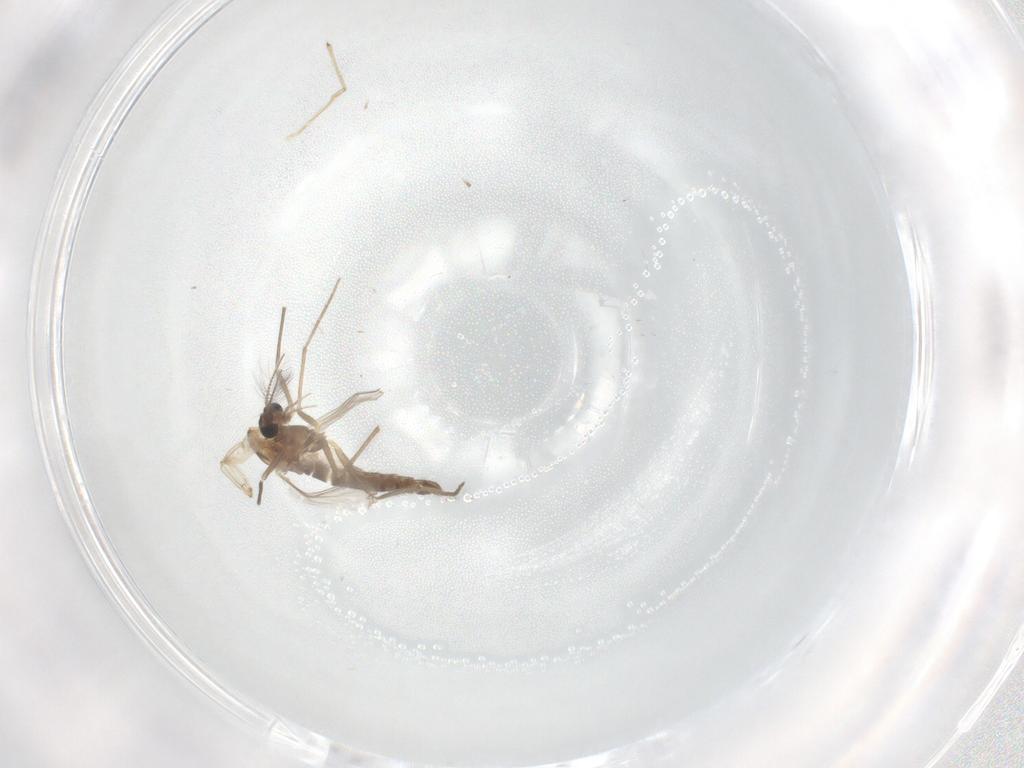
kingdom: Animalia
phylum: Arthropoda
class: Insecta
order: Diptera
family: Chironomidae
